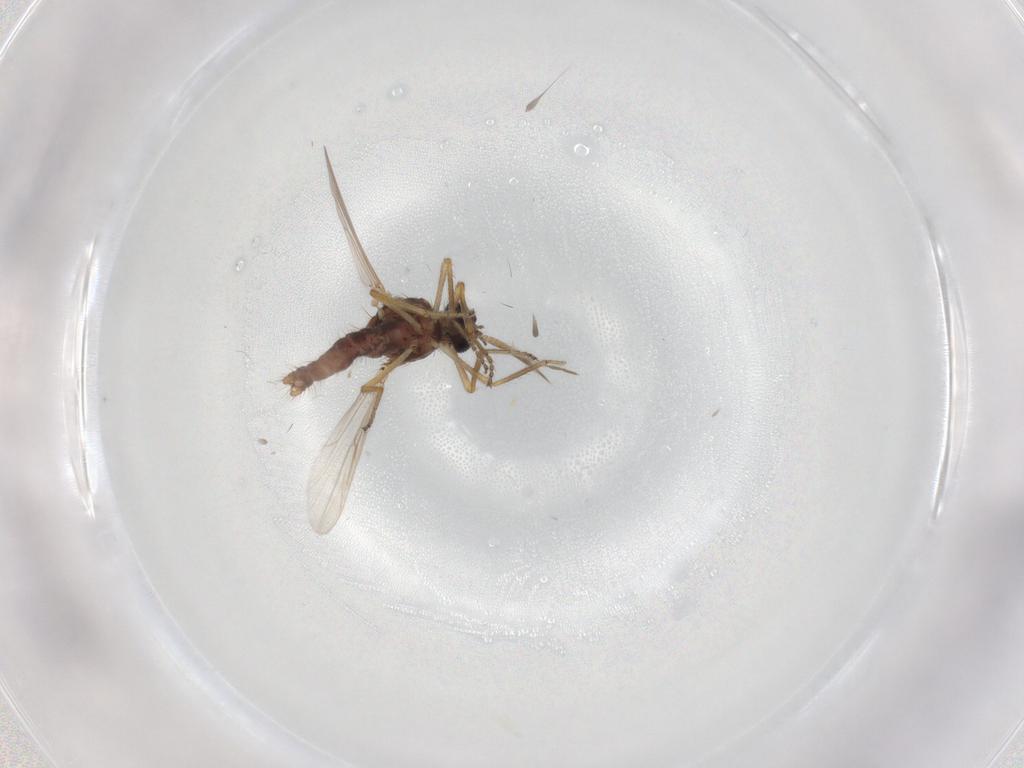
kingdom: Animalia
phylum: Arthropoda
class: Insecta
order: Diptera
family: Ceratopogonidae
